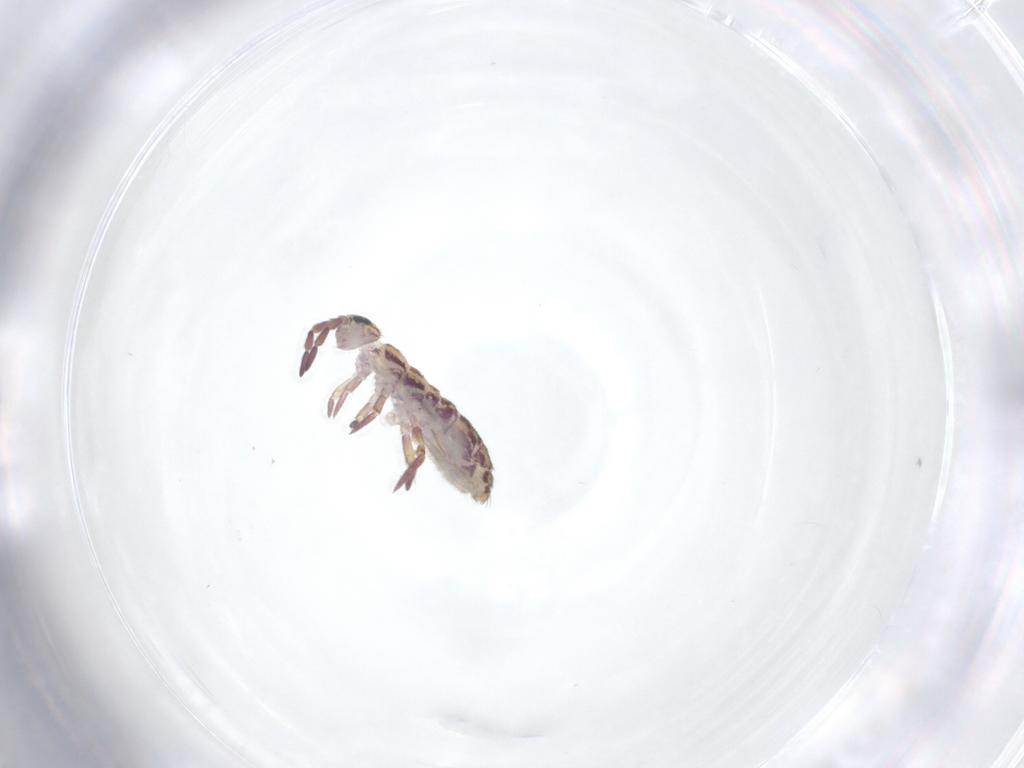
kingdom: Animalia
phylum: Arthropoda
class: Collembola
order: Entomobryomorpha
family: Isotomidae
